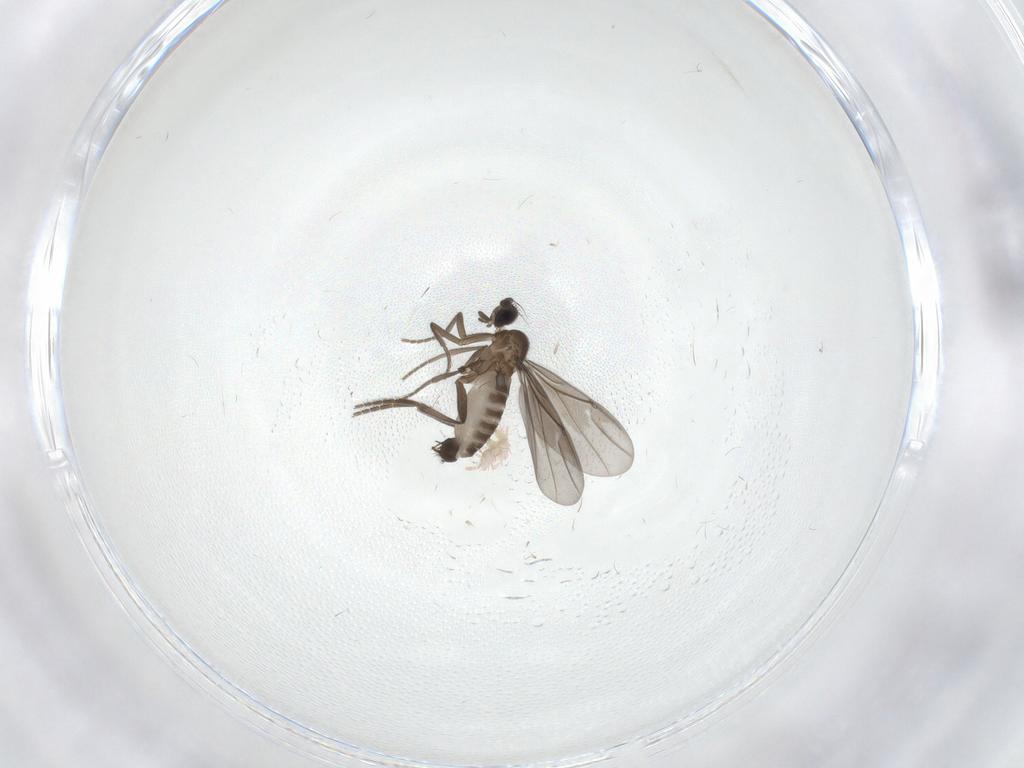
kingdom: Animalia
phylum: Arthropoda
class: Insecta
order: Diptera
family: Chironomidae
